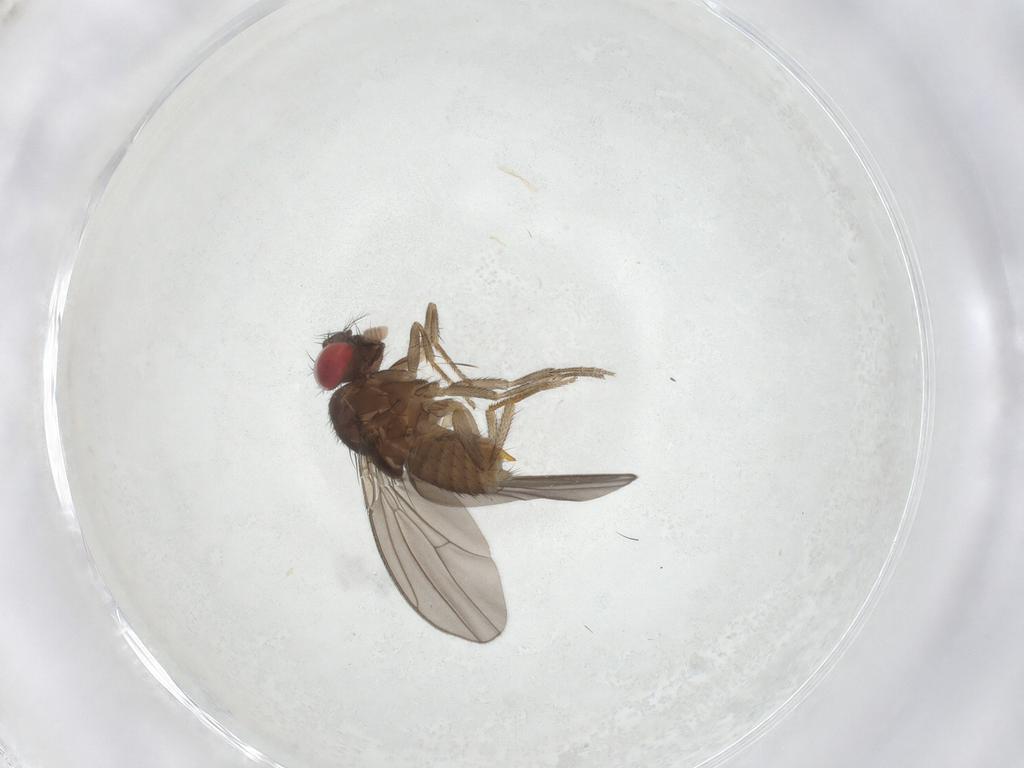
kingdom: Animalia
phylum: Arthropoda
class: Insecta
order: Diptera
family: Drosophilidae
